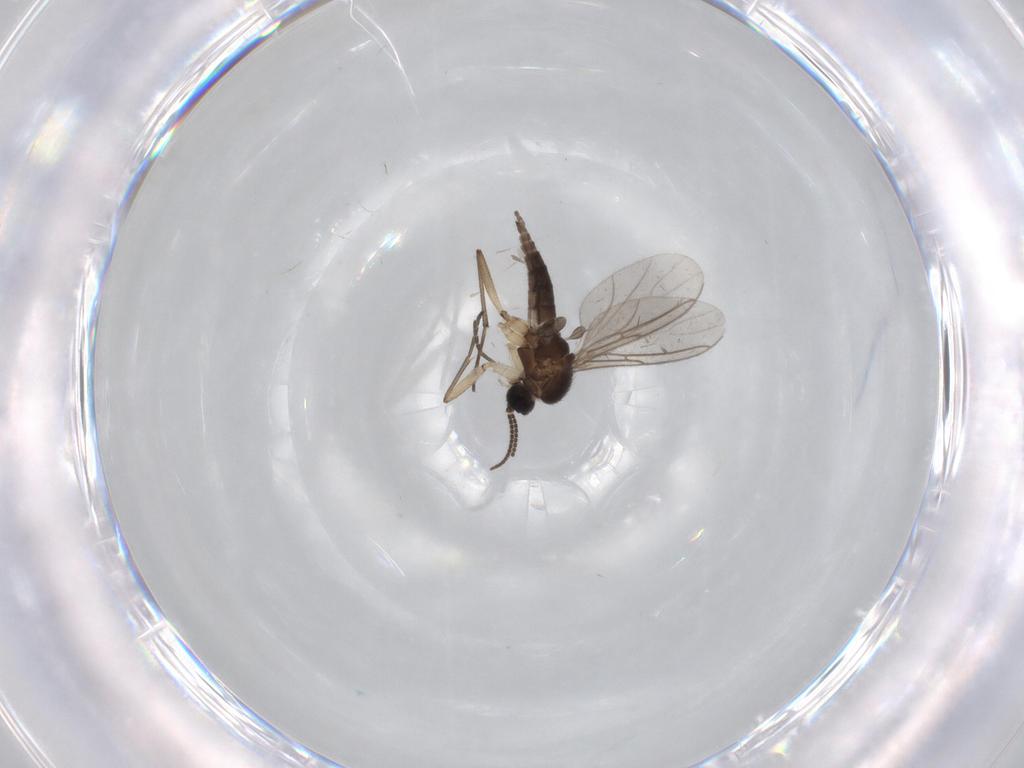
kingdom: Animalia
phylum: Arthropoda
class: Insecta
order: Diptera
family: Sciaridae
